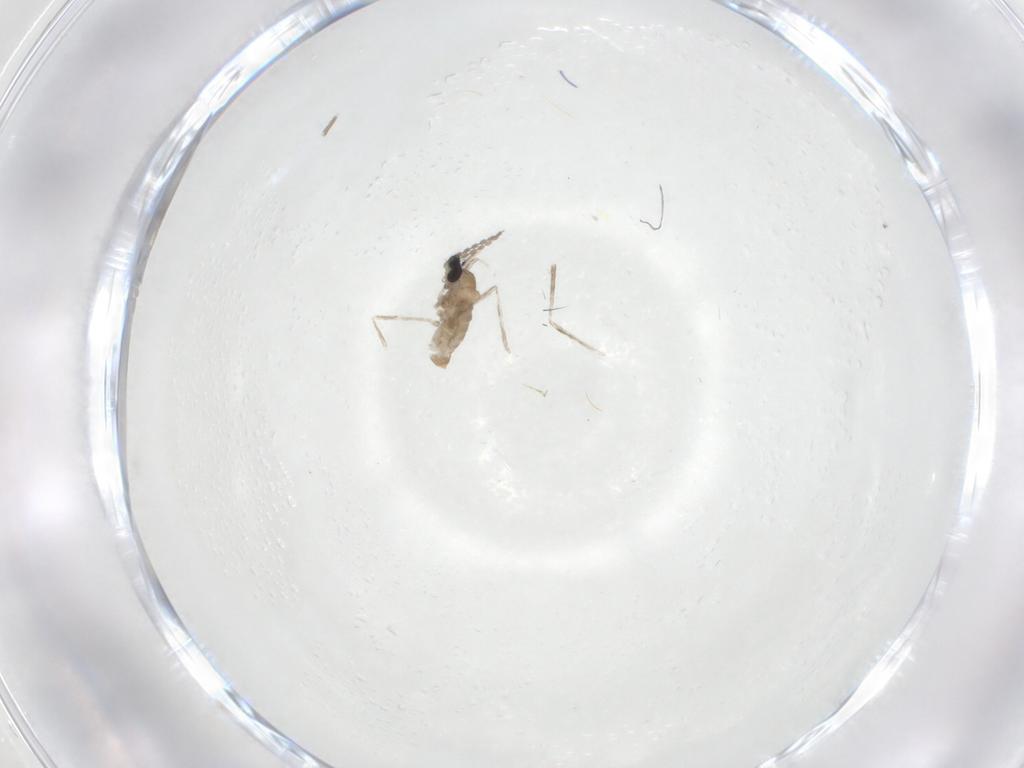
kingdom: Animalia
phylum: Arthropoda
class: Insecta
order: Diptera
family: Cecidomyiidae
